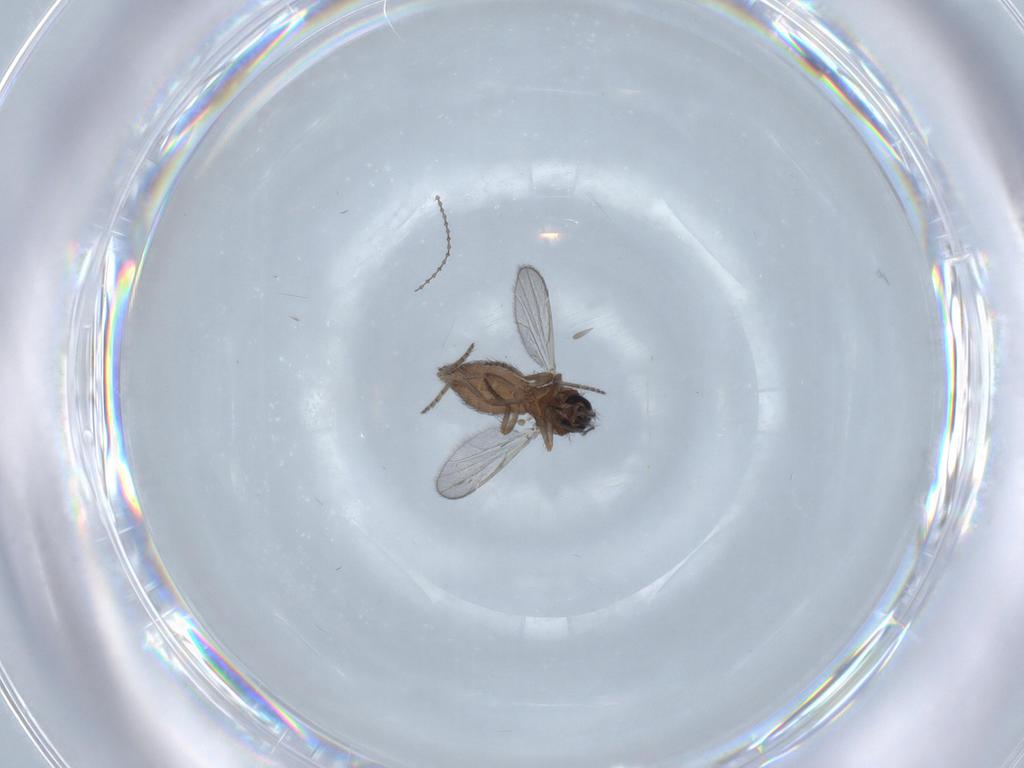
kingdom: Animalia
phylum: Arthropoda
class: Insecta
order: Diptera
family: Ceratopogonidae
